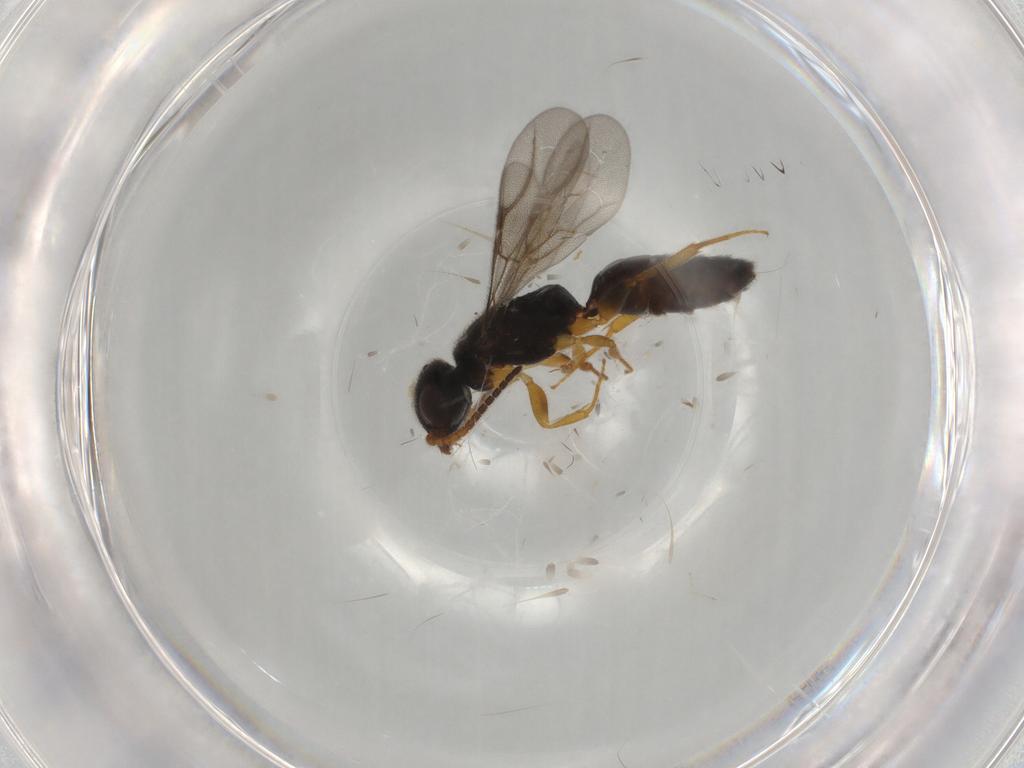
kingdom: Animalia
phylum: Arthropoda
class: Insecta
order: Hymenoptera
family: Bethylidae
